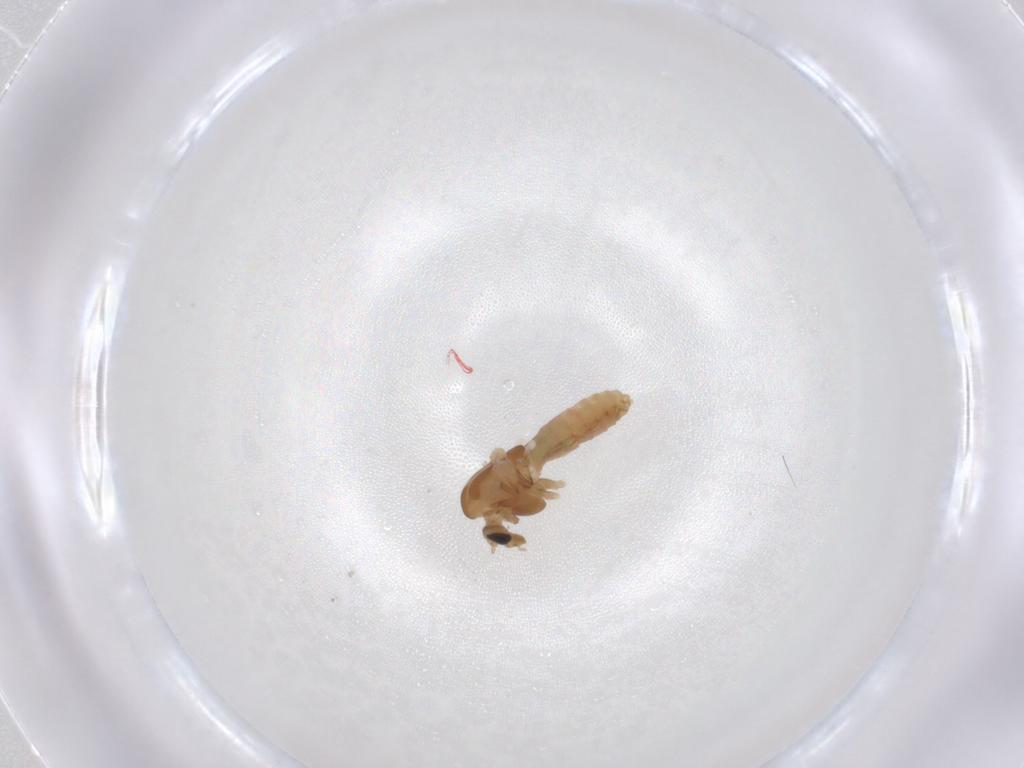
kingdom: Animalia
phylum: Arthropoda
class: Insecta
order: Diptera
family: Chironomidae
